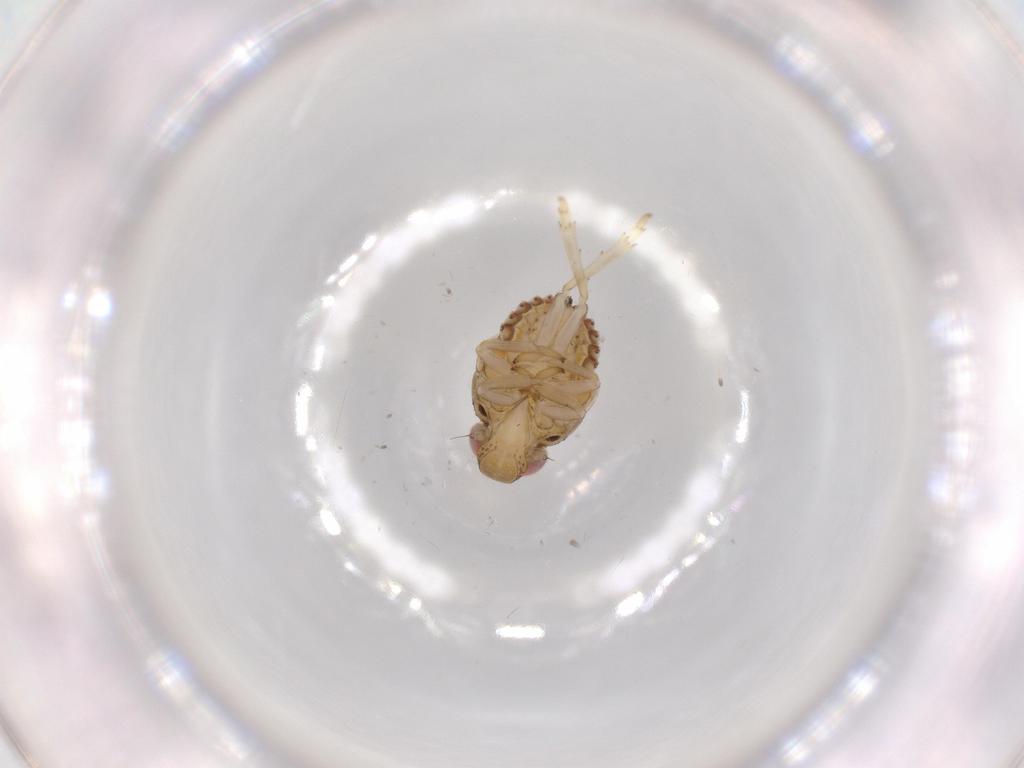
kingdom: Animalia
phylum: Arthropoda
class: Insecta
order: Hemiptera
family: Issidae
